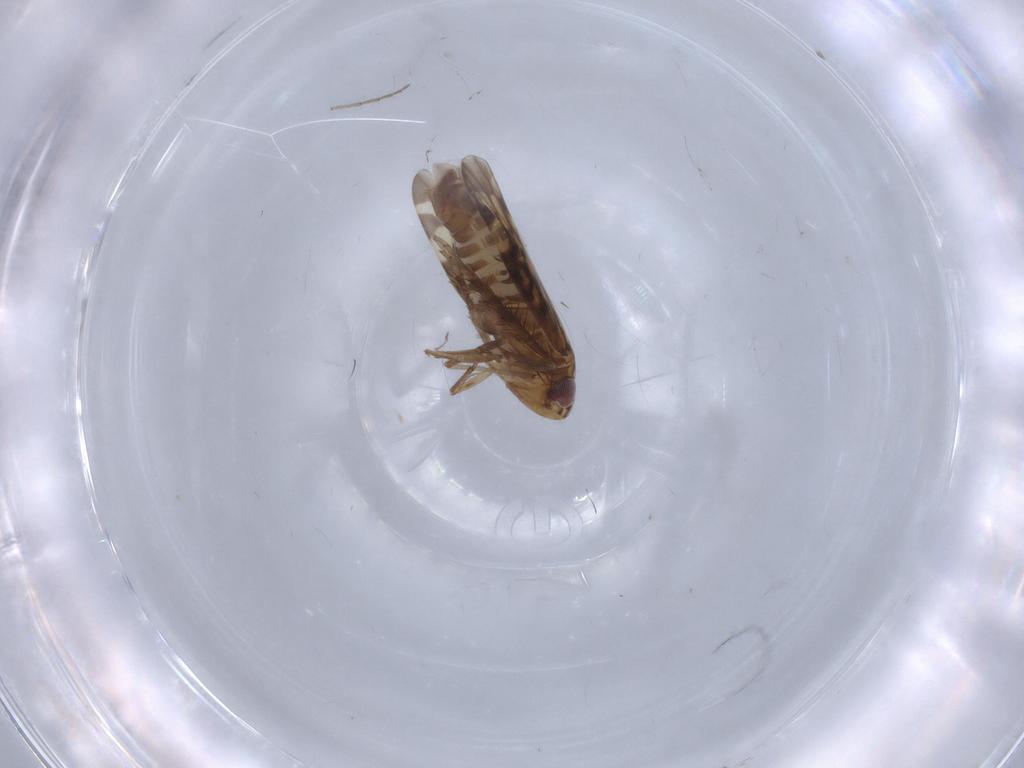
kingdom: Animalia
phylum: Arthropoda
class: Insecta
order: Hemiptera
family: Cicadellidae
